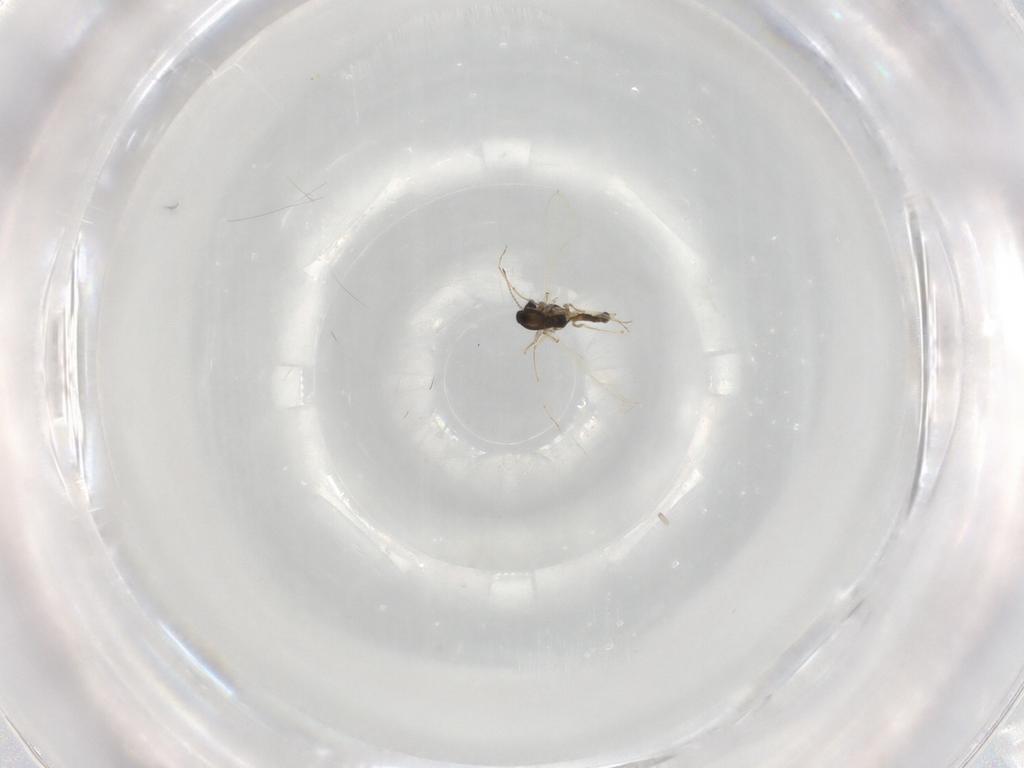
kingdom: Animalia
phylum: Arthropoda
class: Insecta
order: Diptera
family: Chironomidae
